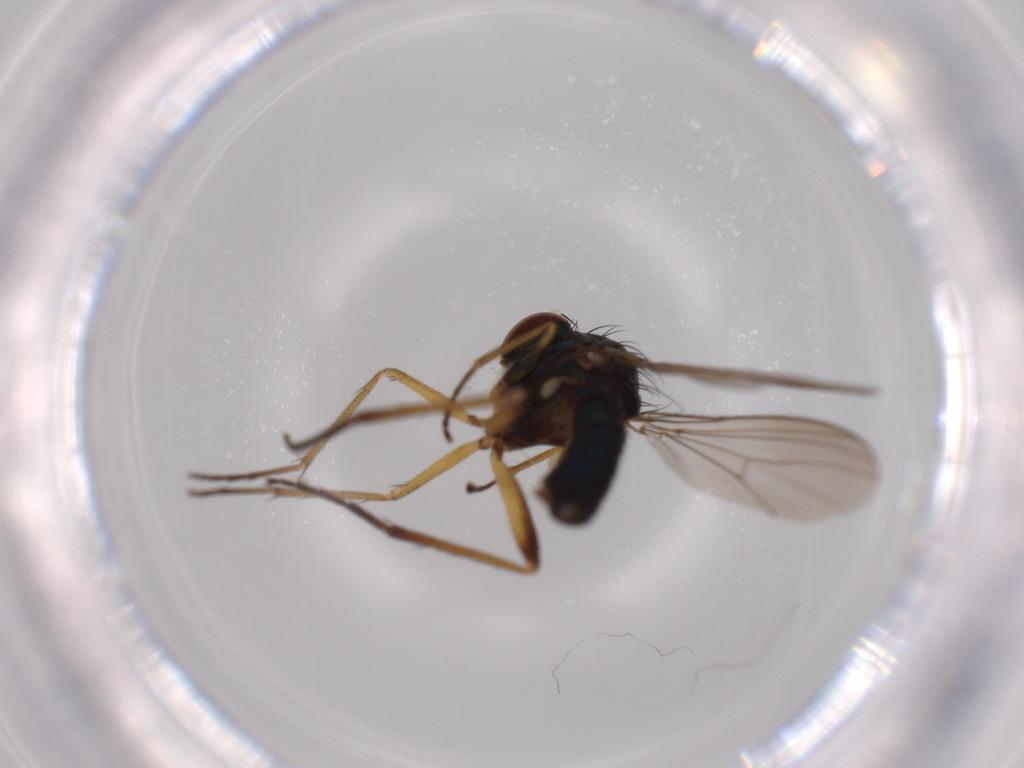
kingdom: Animalia
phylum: Arthropoda
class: Insecta
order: Diptera
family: Dolichopodidae
